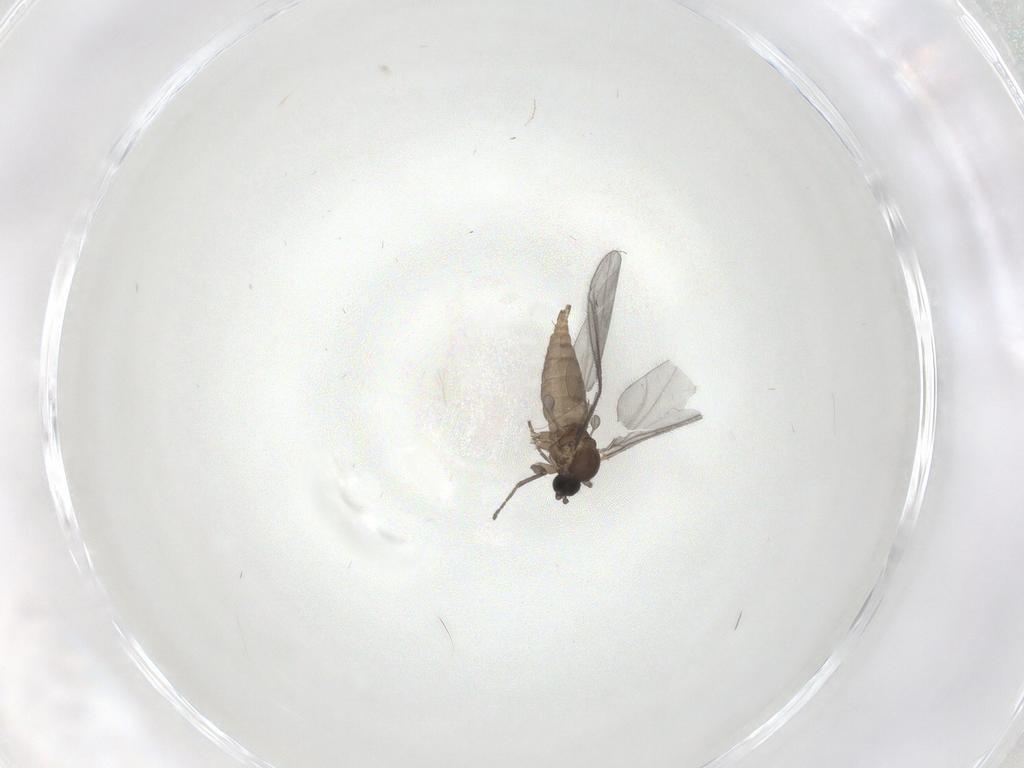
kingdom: Animalia
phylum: Arthropoda
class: Insecta
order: Diptera
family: Sciaridae
